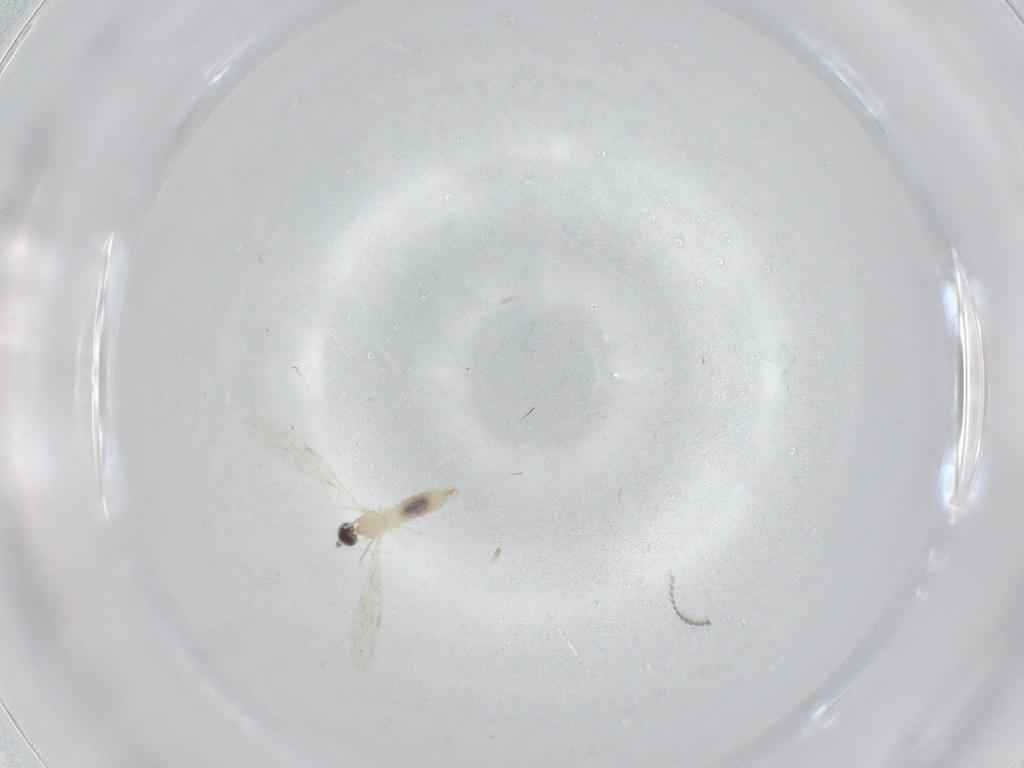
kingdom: Animalia
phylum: Arthropoda
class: Insecta
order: Diptera
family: Cecidomyiidae
